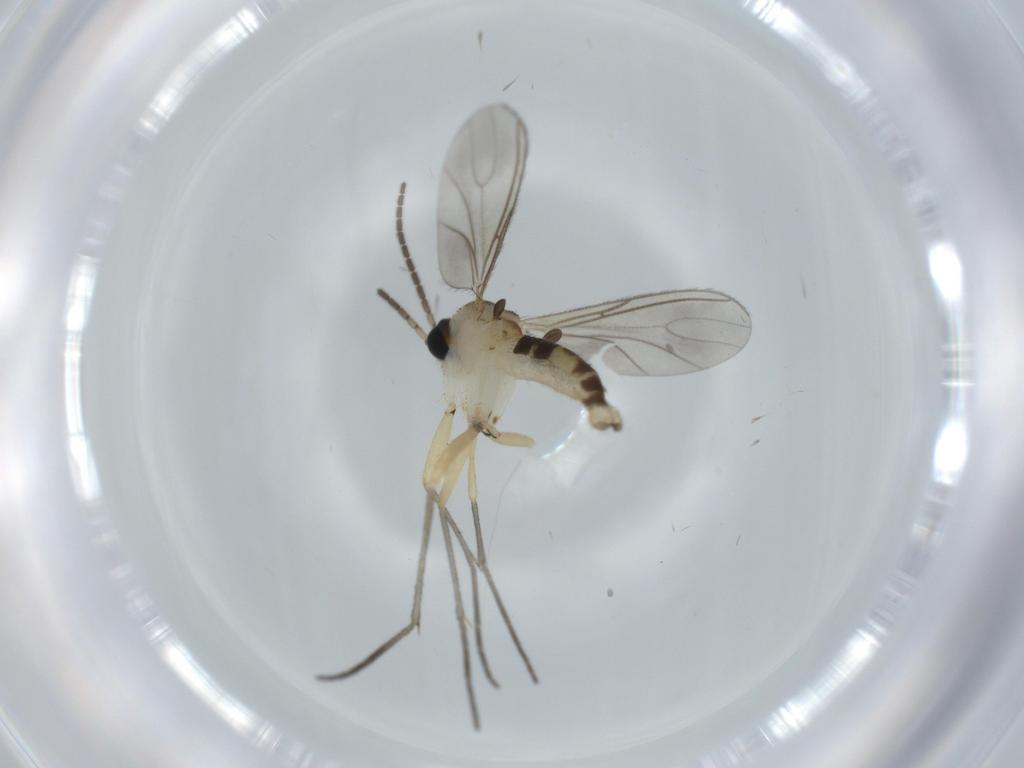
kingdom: Animalia
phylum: Arthropoda
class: Insecta
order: Diptera
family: Sciaridae
